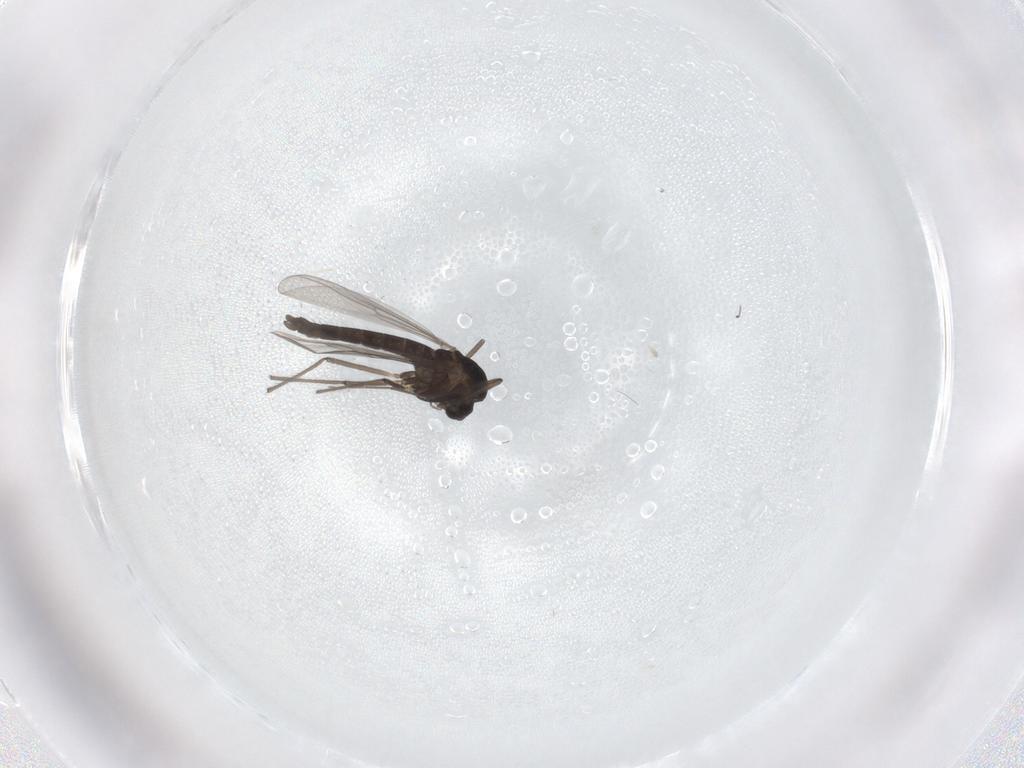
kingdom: Animalia
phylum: Arthropoda
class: Insecta
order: Diptera
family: Chironomidae
